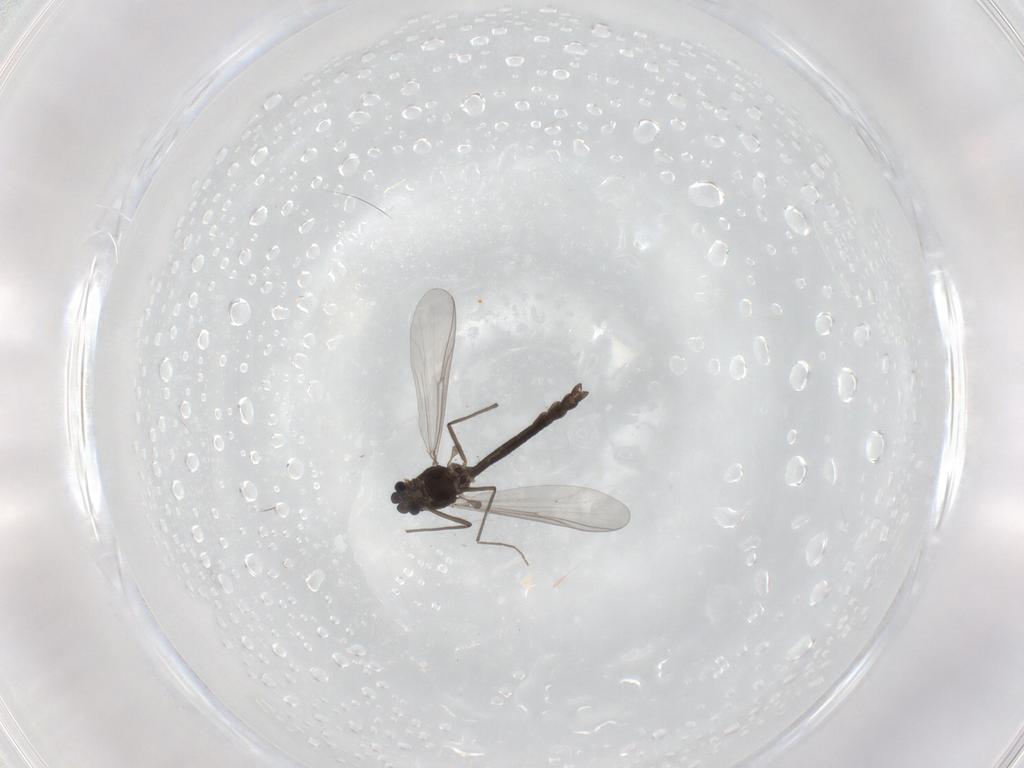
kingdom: Animalia
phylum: Arthropoda
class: Insecta
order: Diptera
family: Chironomidae
